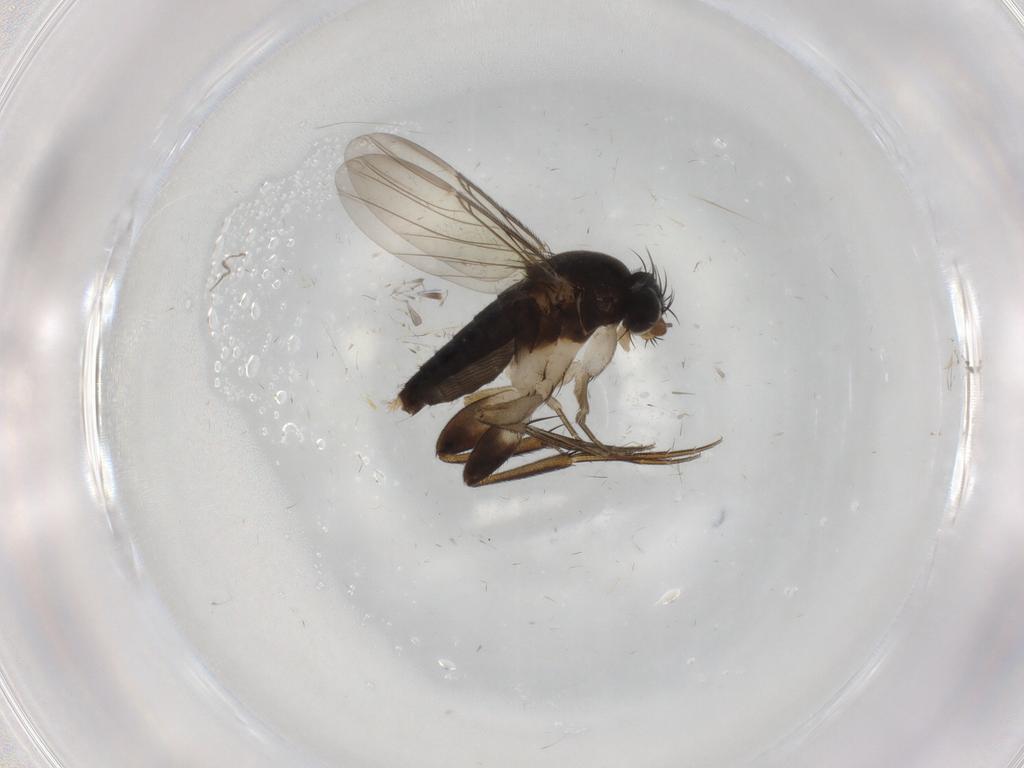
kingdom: Animalia
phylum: Arthropoda
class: Insecta
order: Diptera
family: Phoridae
